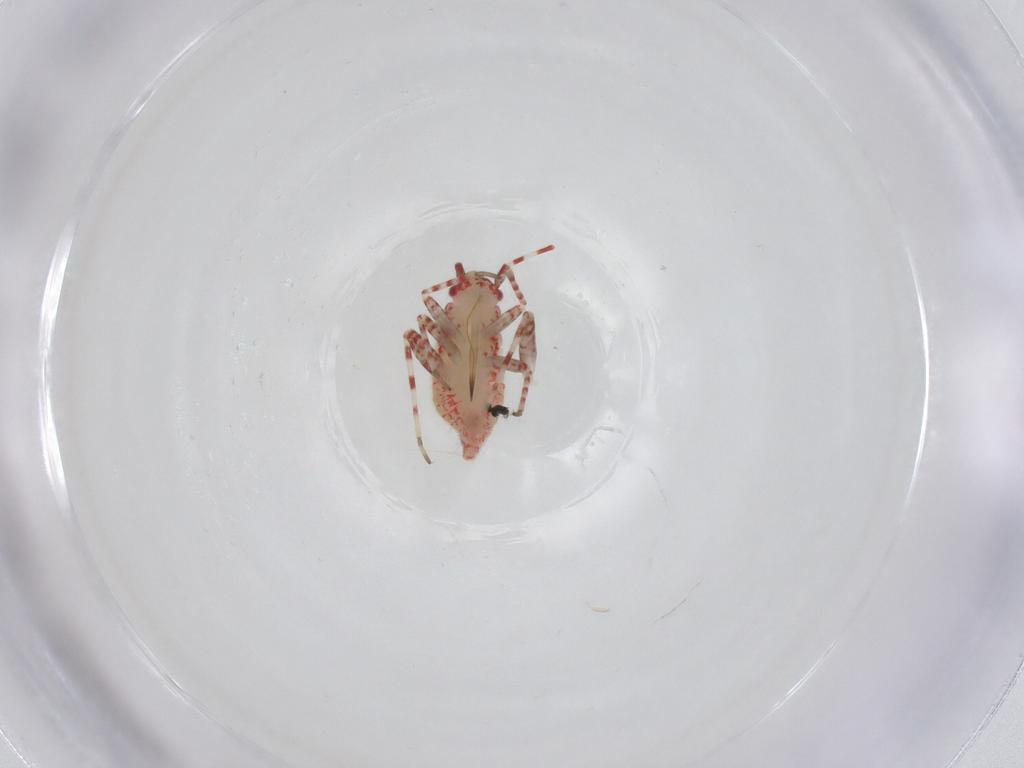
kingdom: Animalia
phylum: Arthropoda
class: Insecta
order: Hemiptera
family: Miridae
